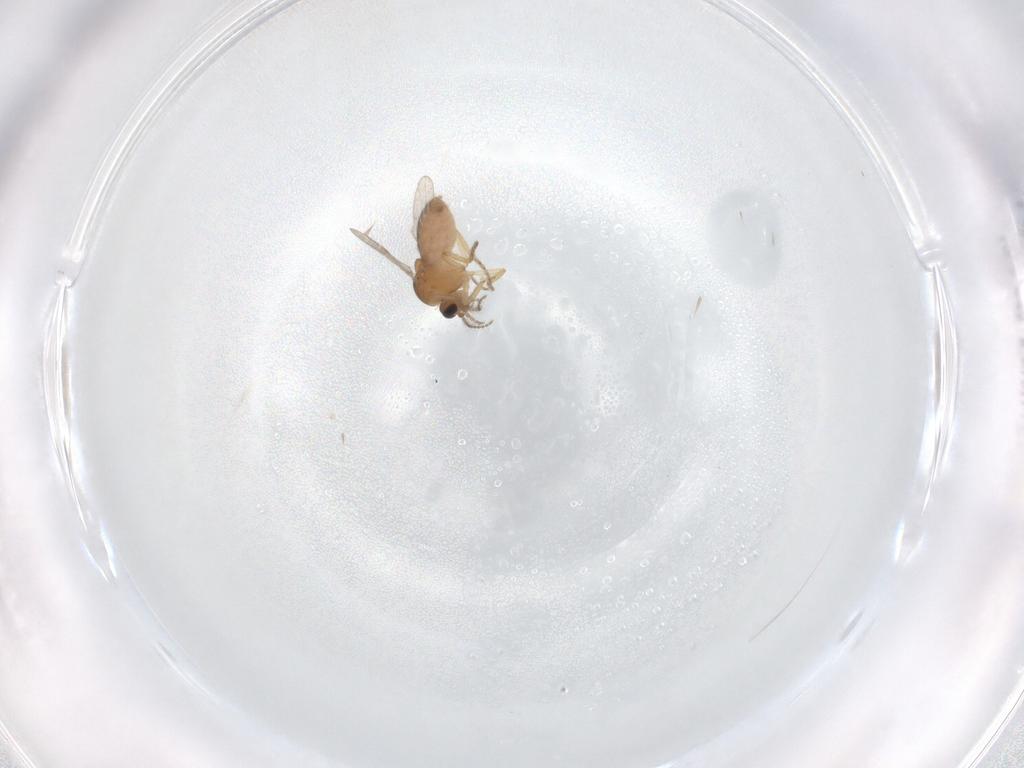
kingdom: Animalia
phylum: Arthropoda
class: Insecta
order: Diptera
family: Ceratopogonidae
